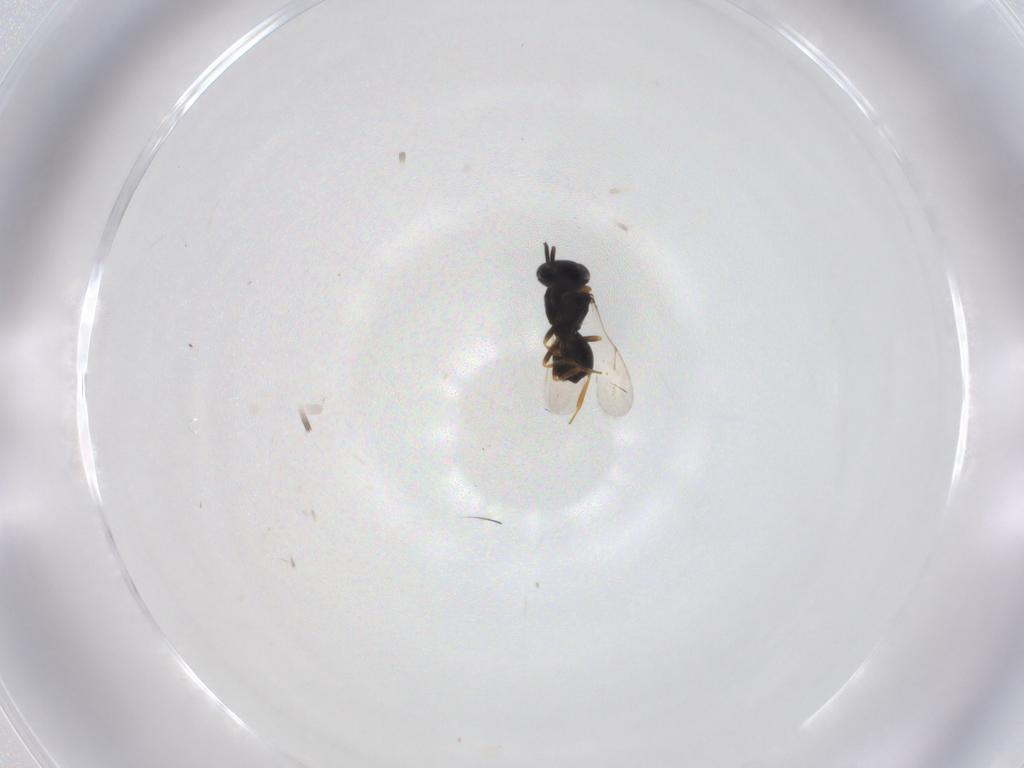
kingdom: Animalia
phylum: Arthropoda
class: Insecta
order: Hymenoptera
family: Scelionidae
